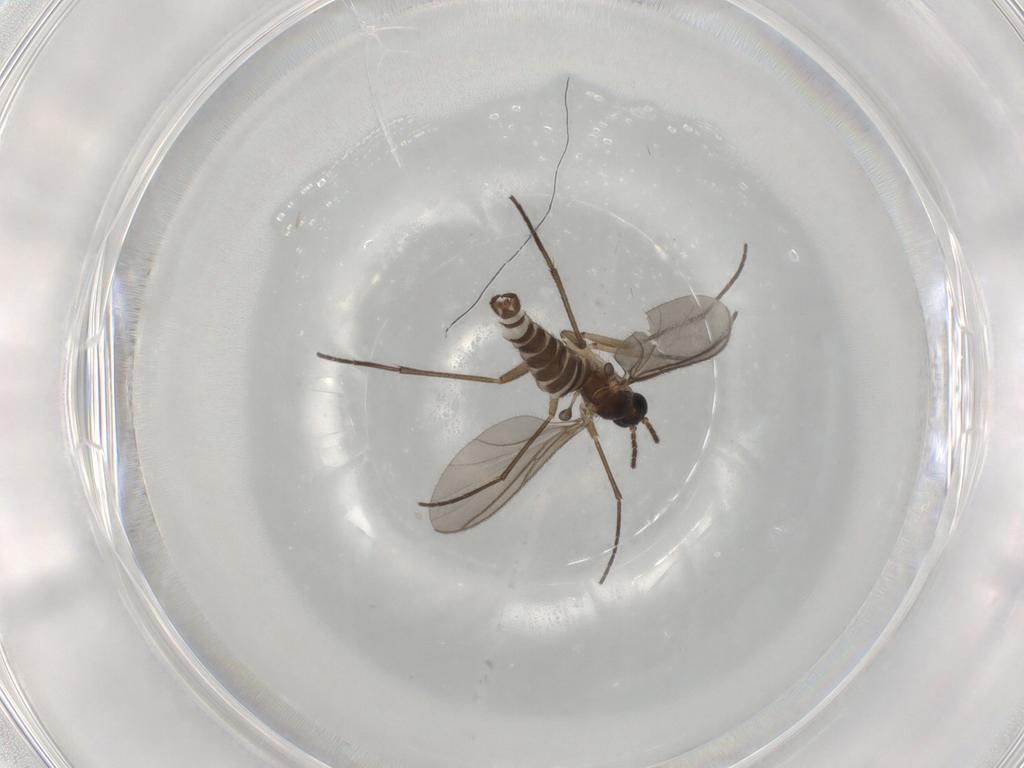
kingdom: Animalia
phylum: Arthropoda
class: Insecta
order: Diptera
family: Sciaridae
